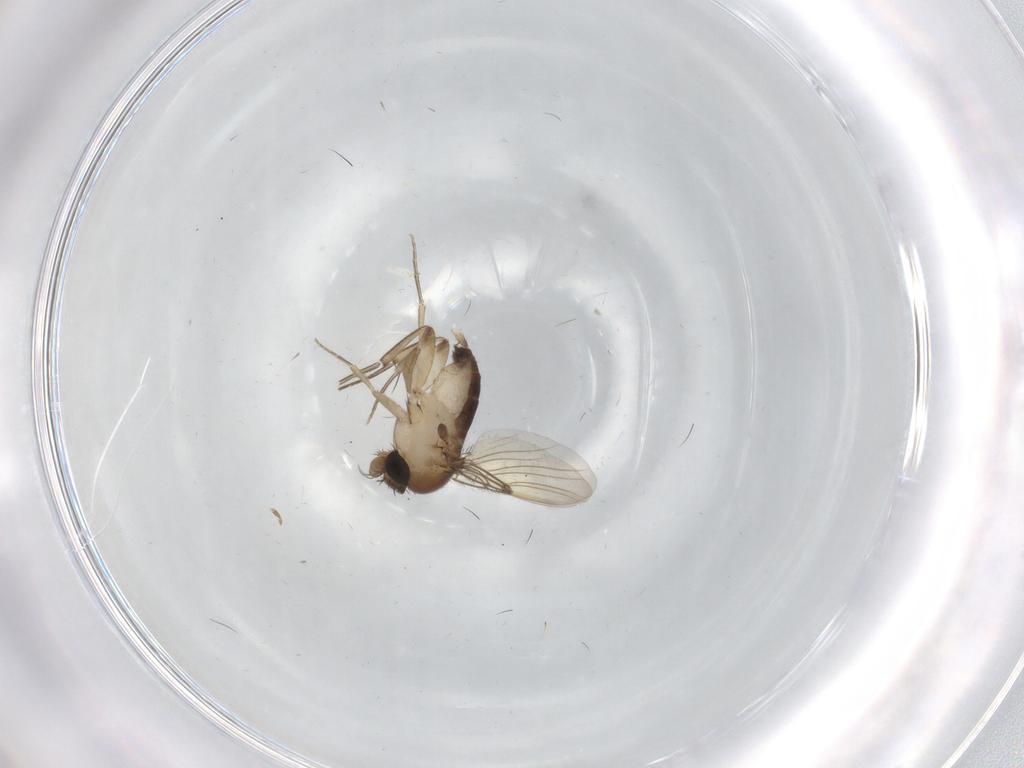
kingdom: Animalia
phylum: Arthropoda
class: Insecta
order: Diptera
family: Phoridae
